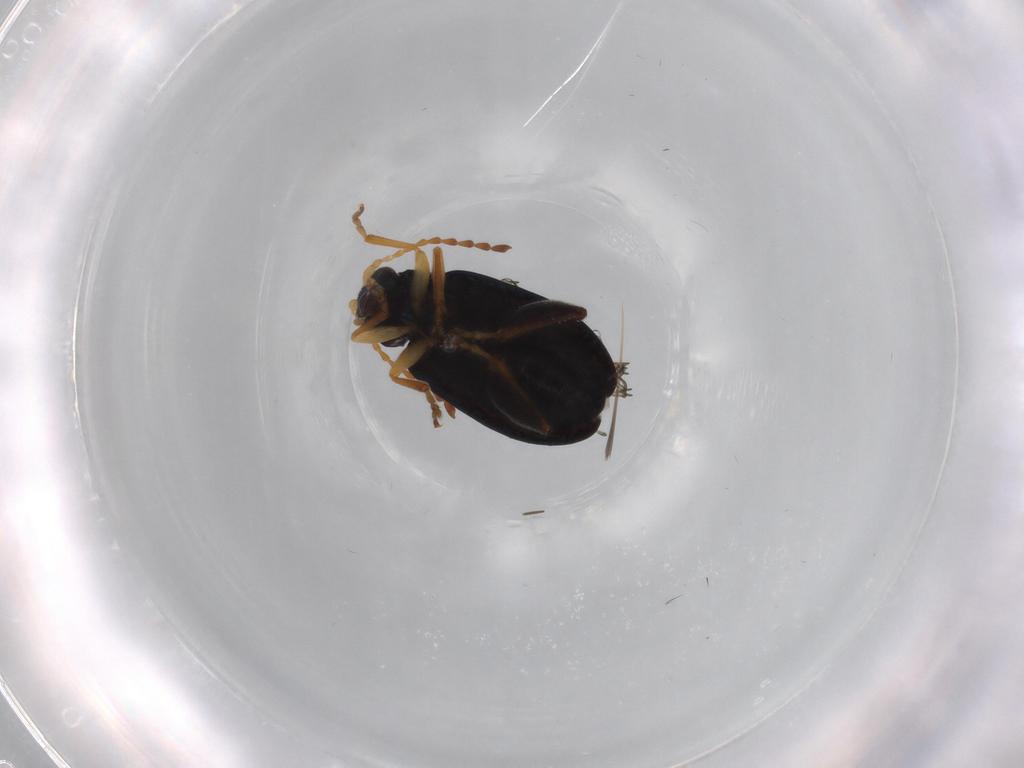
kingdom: Animalia
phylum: Arthropoda
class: Insecta
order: Coleoptera
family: Chrysomelidae
